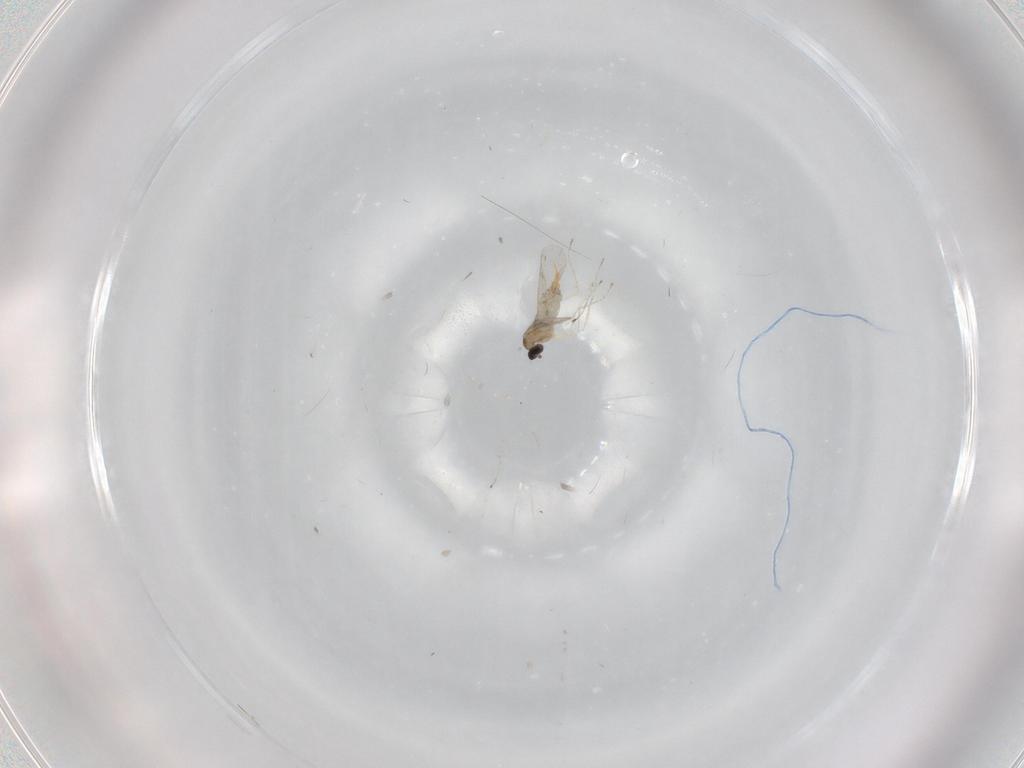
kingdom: Animalia
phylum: Arthropoda
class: Insecta
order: Diptera
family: Cecidomyiidae
